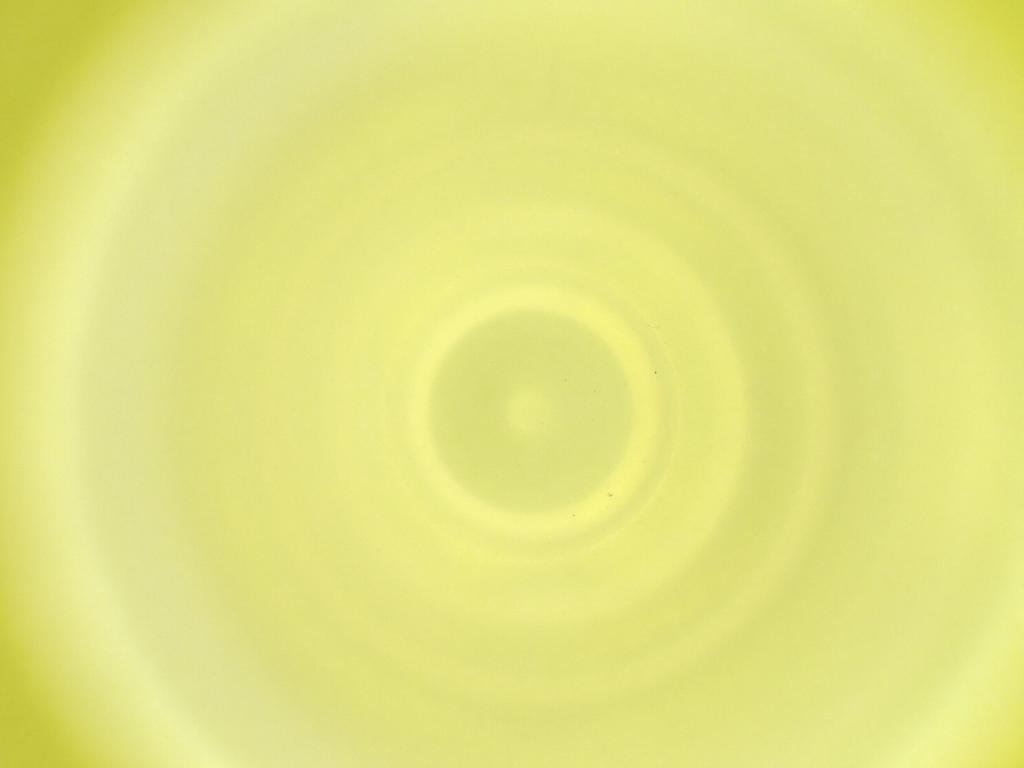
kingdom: Animalia
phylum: Arthropoda
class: Insecta
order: Diptera
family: Cecidomyiidae
